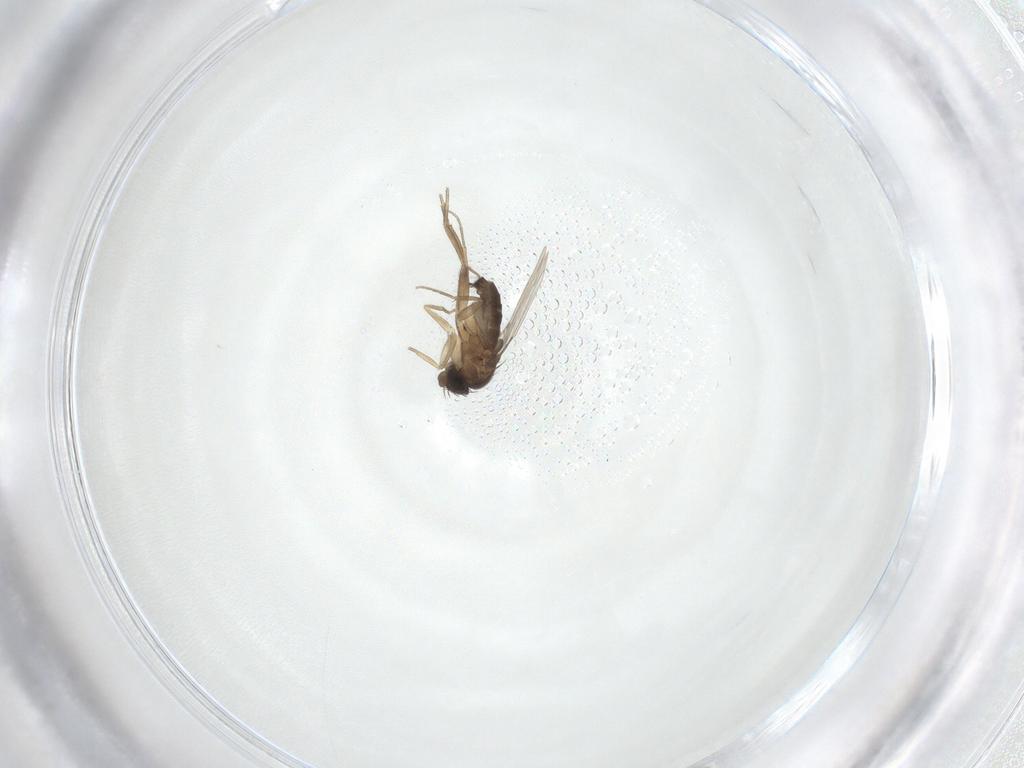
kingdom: Animalia
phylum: Arthropoda
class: Insecta
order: Diptera
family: Phoridae
